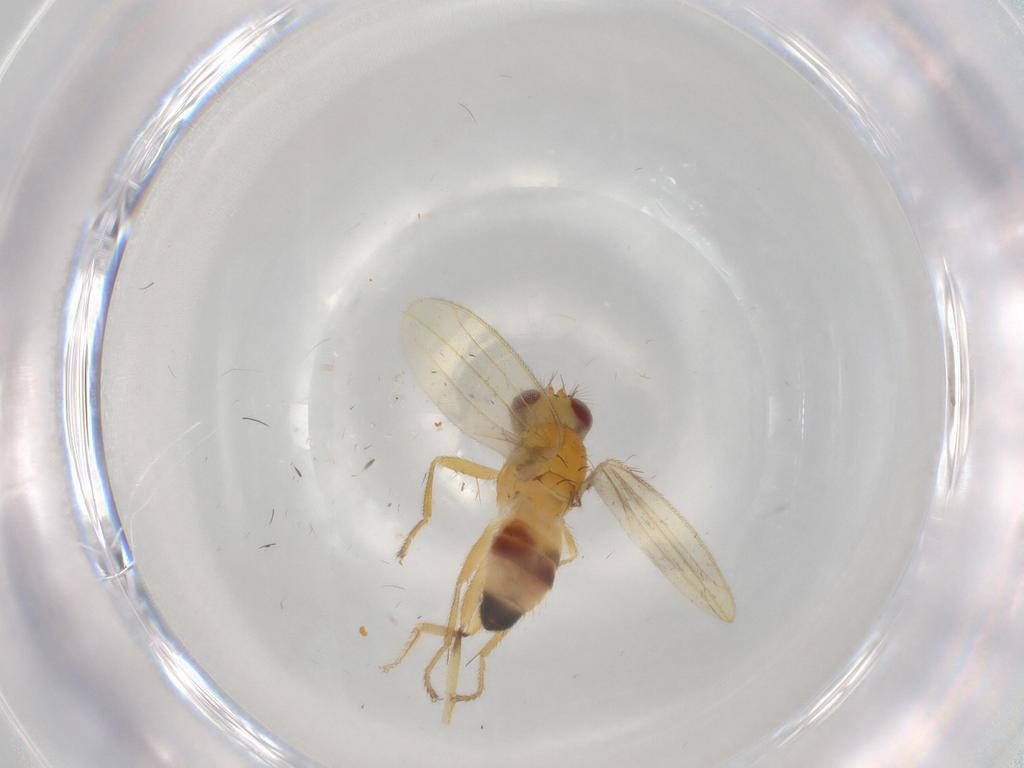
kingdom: Animalia
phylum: Arthropoda
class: Insecta
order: Diptera
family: Periscelididae
